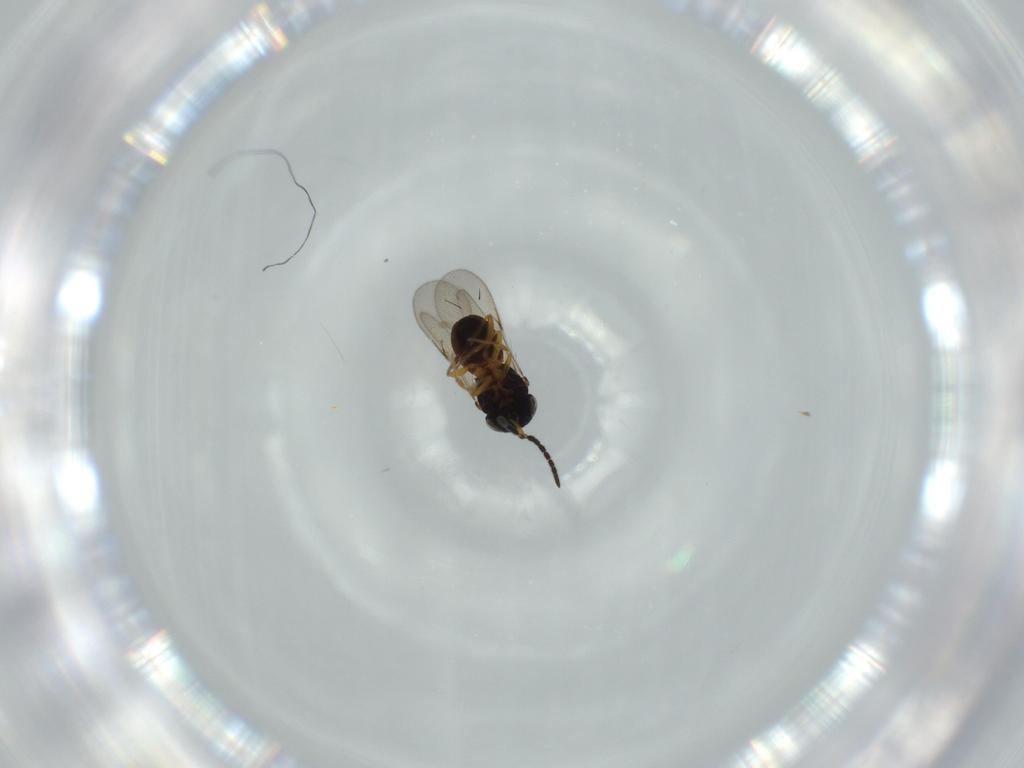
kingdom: Animalia
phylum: Arthropoda
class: Insecta
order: Hymenoptera
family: Scelionidae
